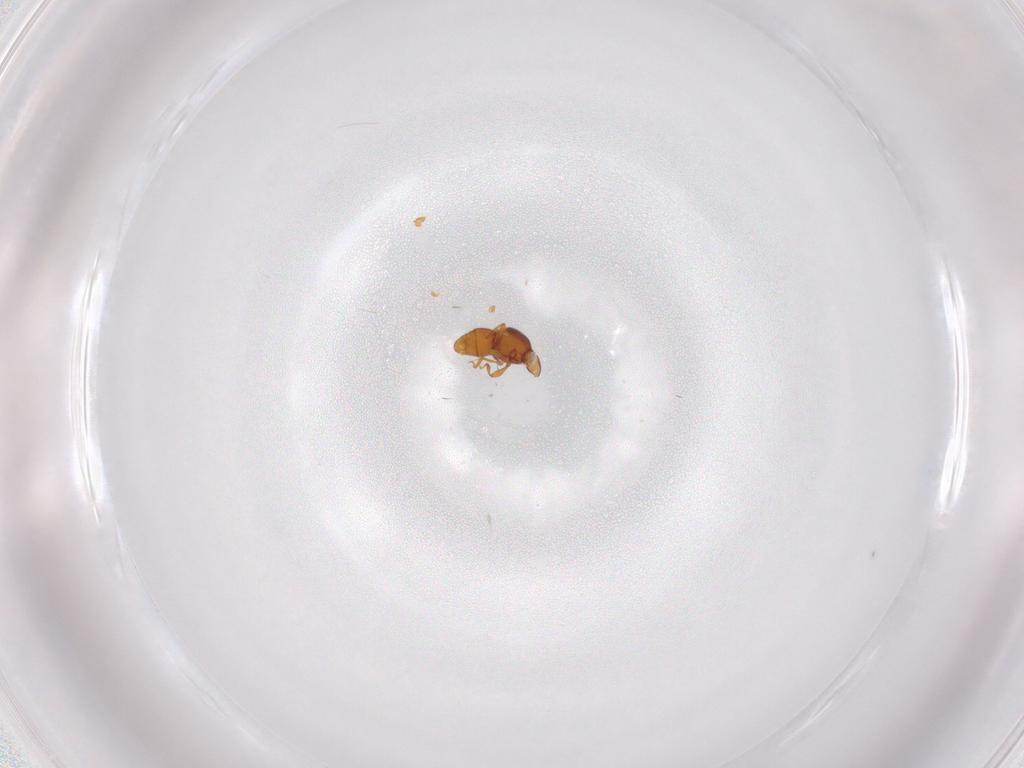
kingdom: Animalia
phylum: Arthropoda
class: Insecta
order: Coleoptera
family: Staphylinidae
